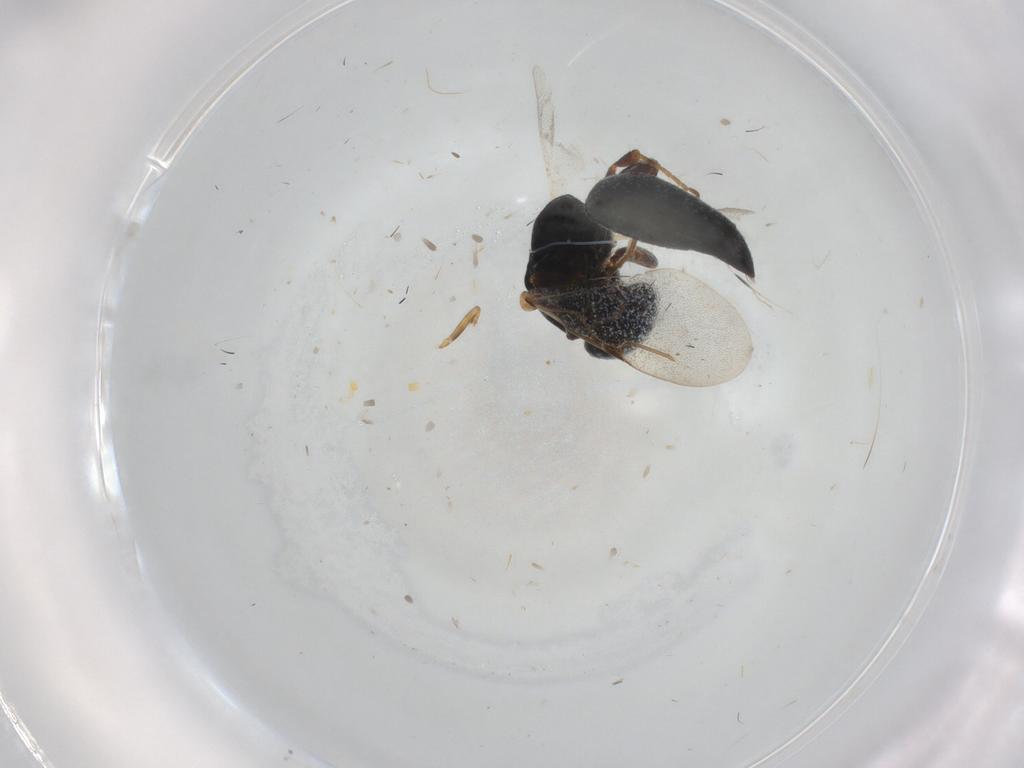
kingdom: Animalia
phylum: Arthropoda
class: Insecta
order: Hymenoptera
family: Bethylidae
